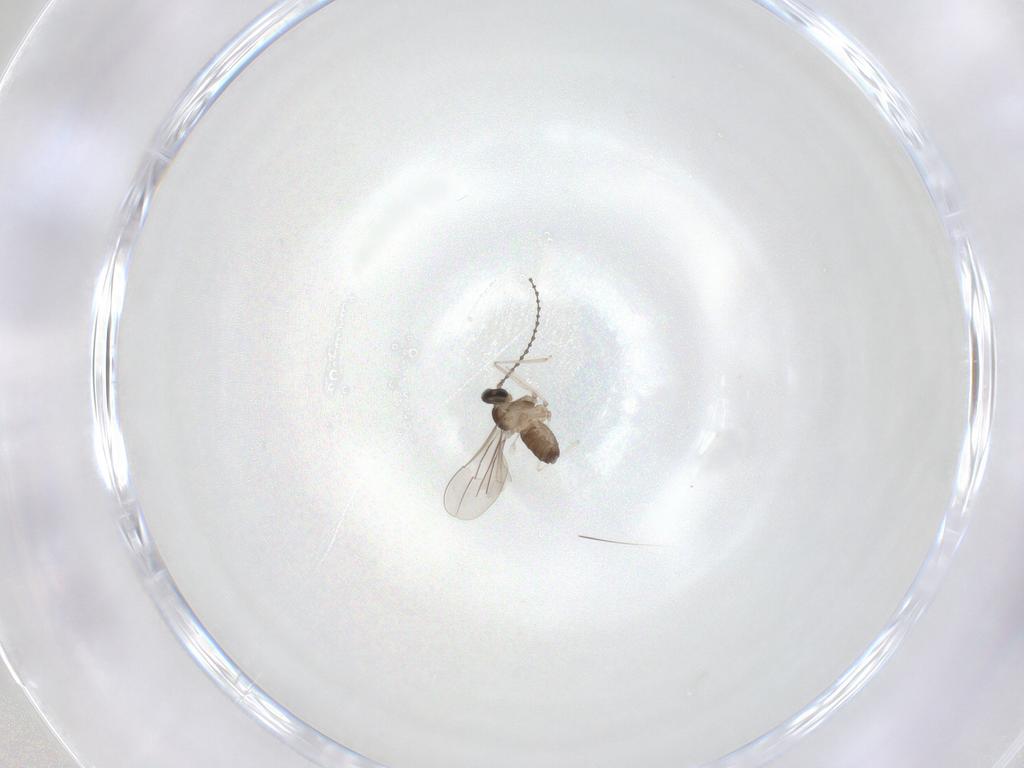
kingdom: Animalia
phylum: Arthropoda
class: Insecta
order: Diptera
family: Cecidomyiidae
